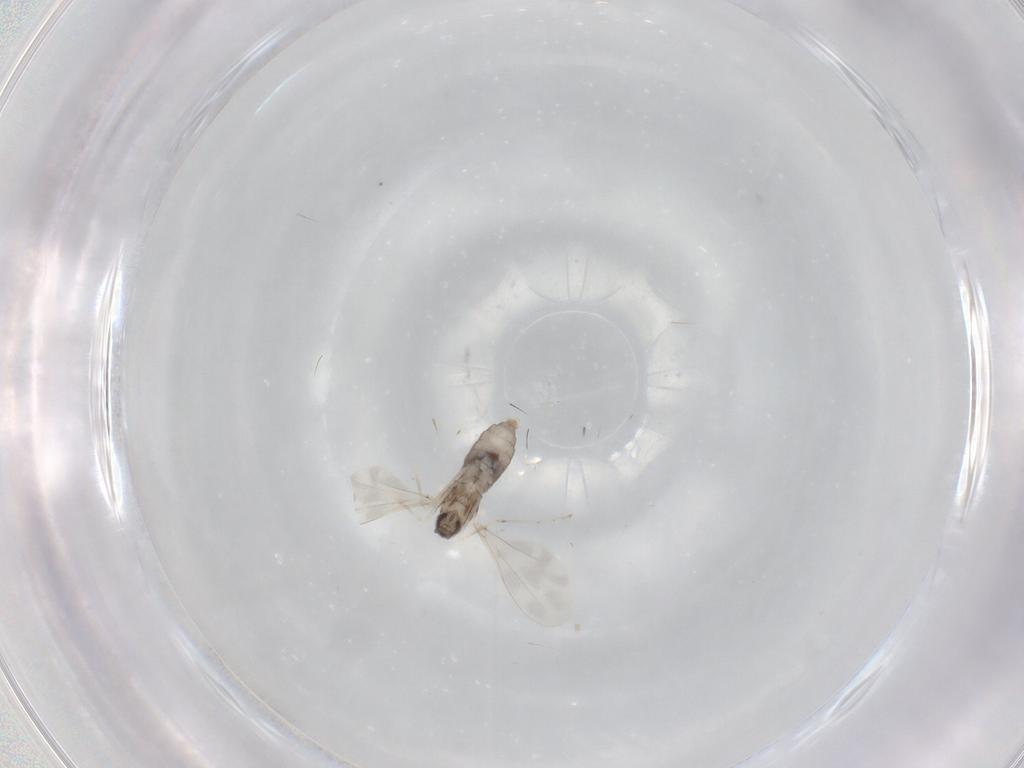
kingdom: Animalia
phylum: Arthropoda
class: Insecta
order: Diptera
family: Cecidomyiidae
